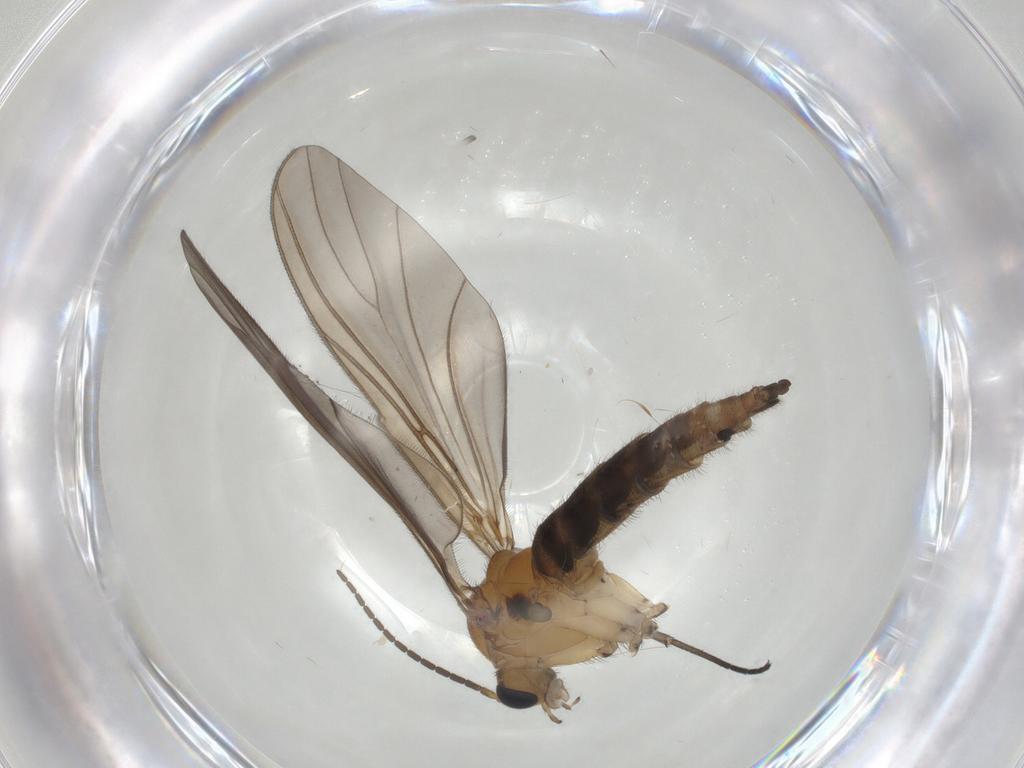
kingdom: Animalia
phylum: Arthropoda
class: Insecta
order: Diptera
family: Sciaridae
